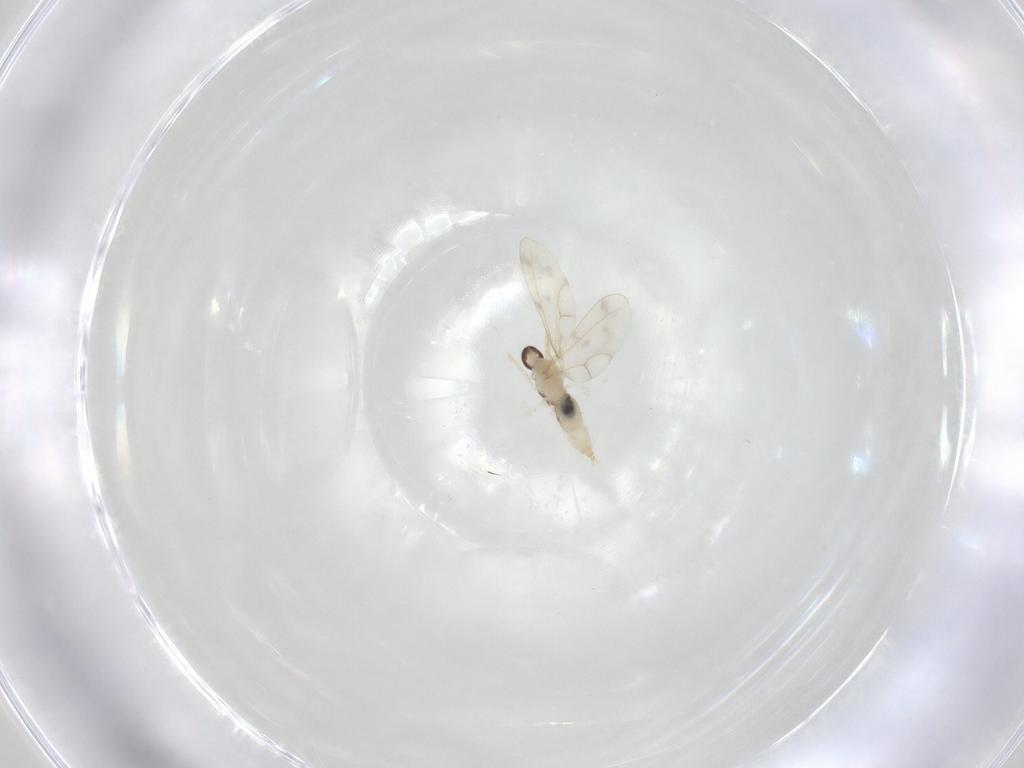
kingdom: Animalia
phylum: Arthropoda
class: Insecta
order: Diptera
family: Cecidomyiidae
